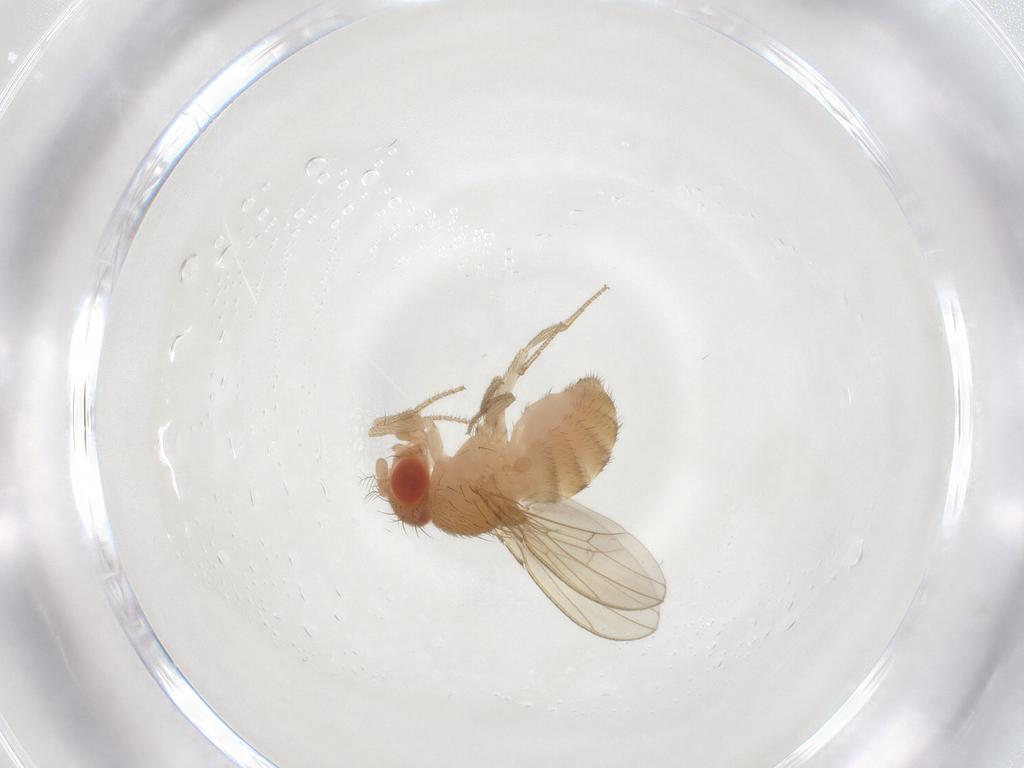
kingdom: Animalia
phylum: Arthropoda
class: Insecta
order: Diptera
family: Drosophilidae
